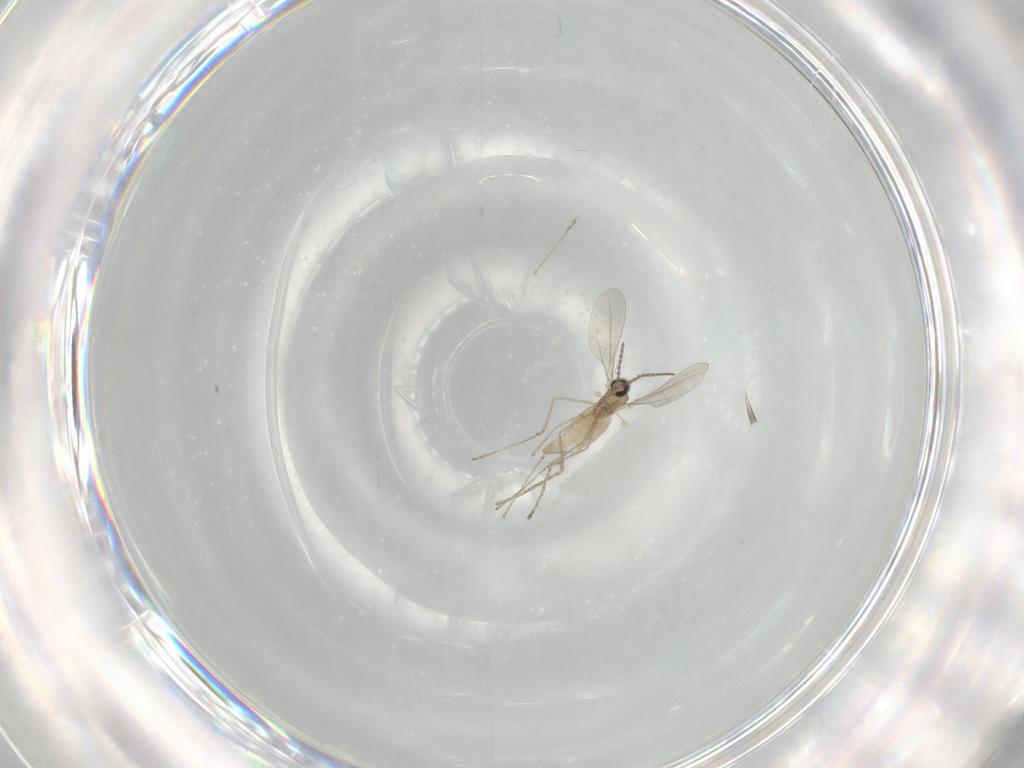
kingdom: Animalia
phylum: Arthropoda
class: Insecta
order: Diptera
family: Cecidomyiidae
